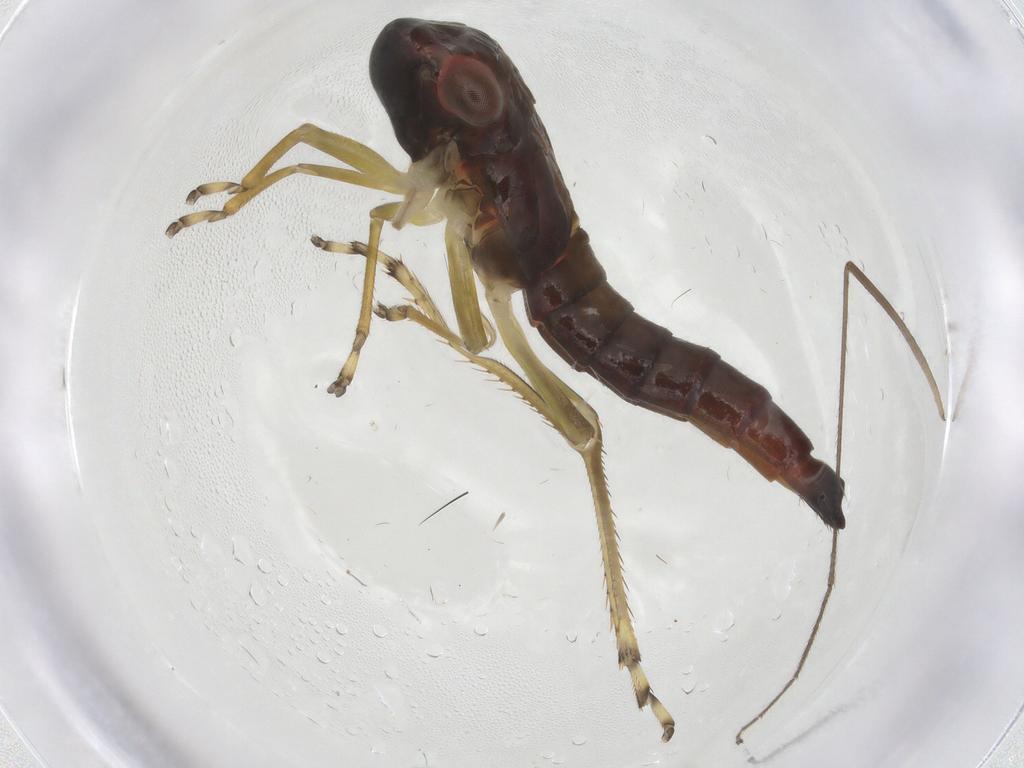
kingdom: Animalia
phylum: Arthropoda
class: Insecta
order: Hemiptera
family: Cicadellidae
